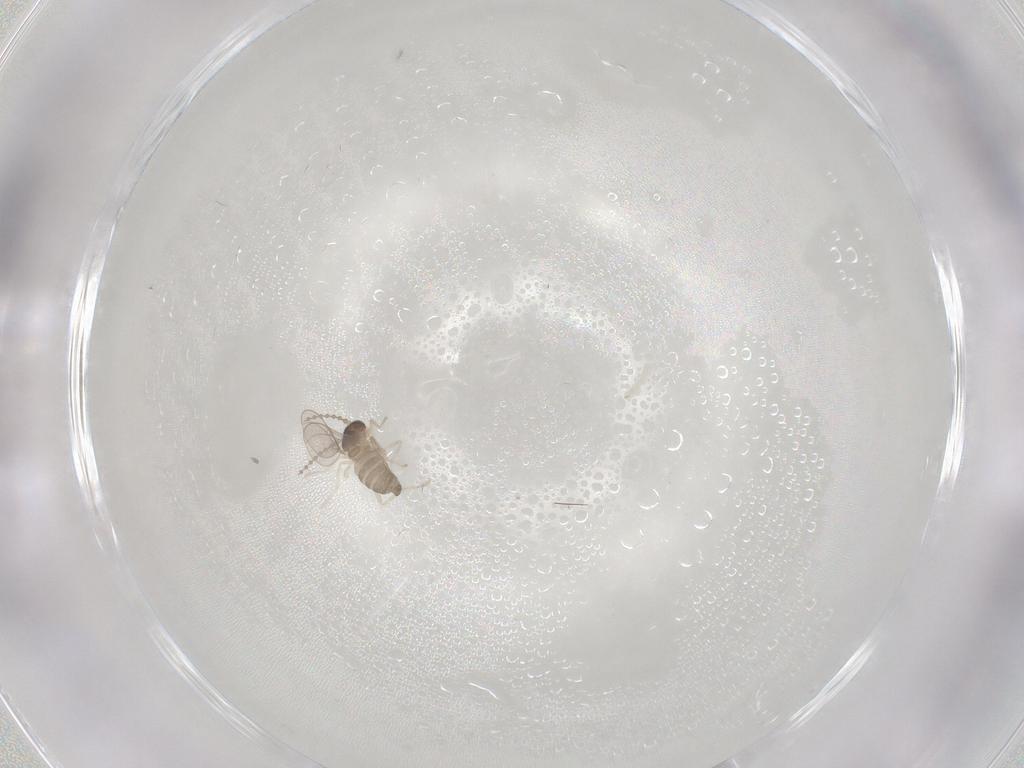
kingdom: Animalia
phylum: Arthropoda
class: Insecta
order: Diptera
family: Cecidomyiidae
